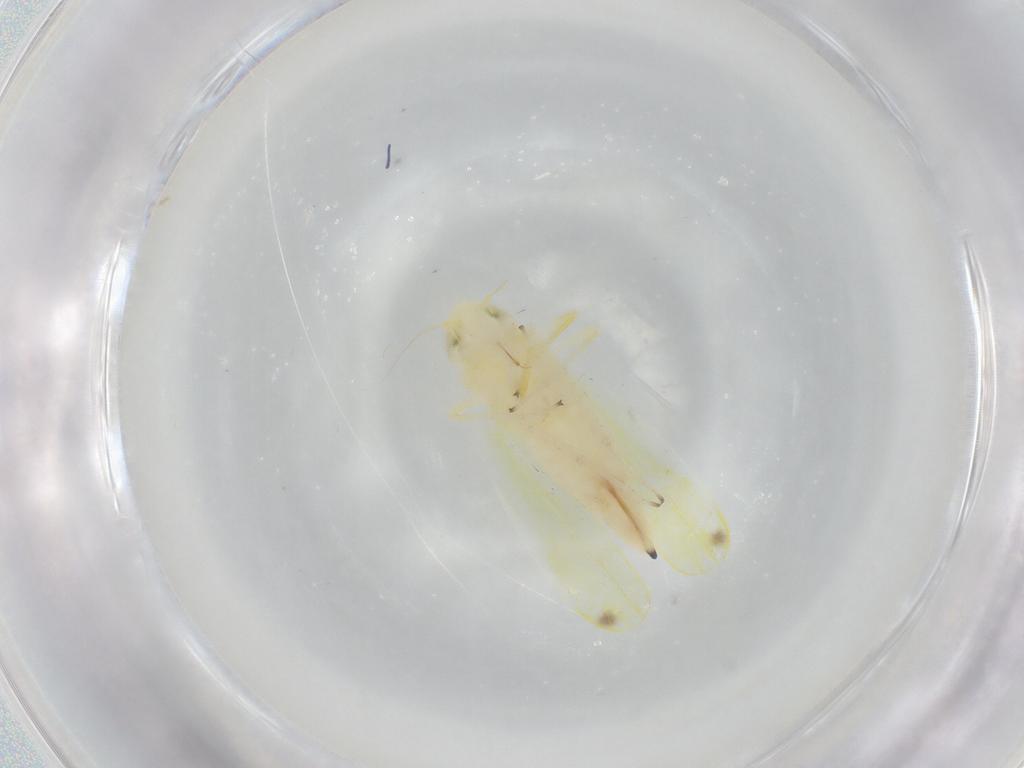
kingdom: Animalia
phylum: Arthropoda
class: Insecta
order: Hemiptera
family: Cicadellidae
